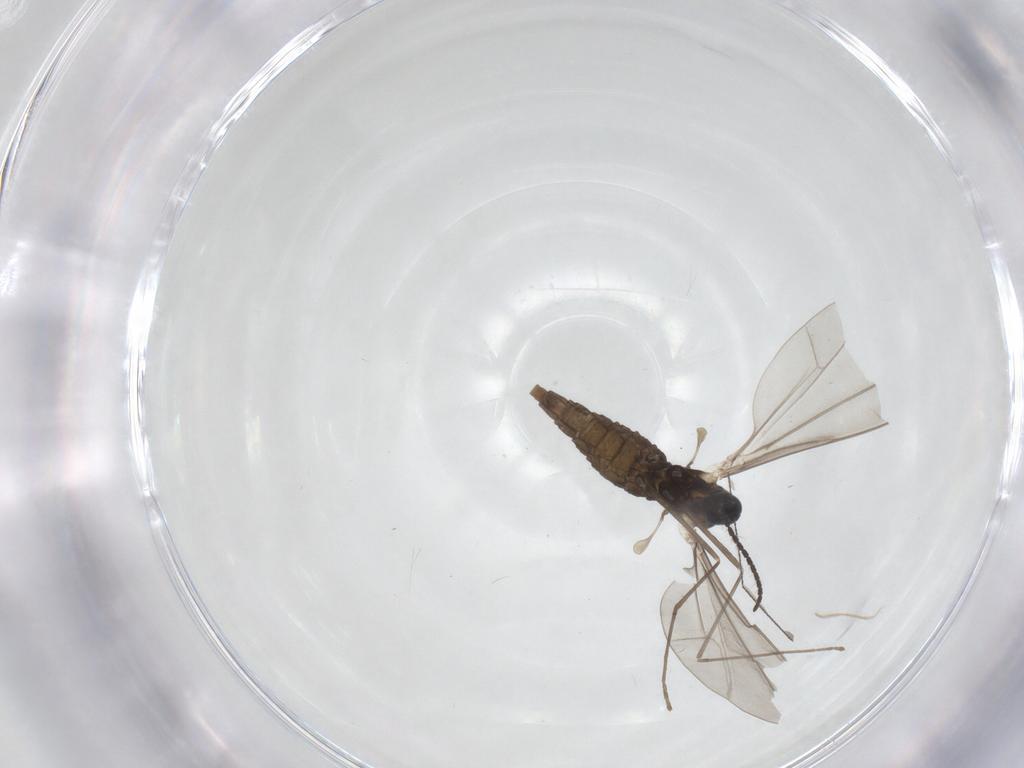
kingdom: Animalia
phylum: Arthropoda
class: Insecta
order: Diptera
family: Cecidomyiidae
